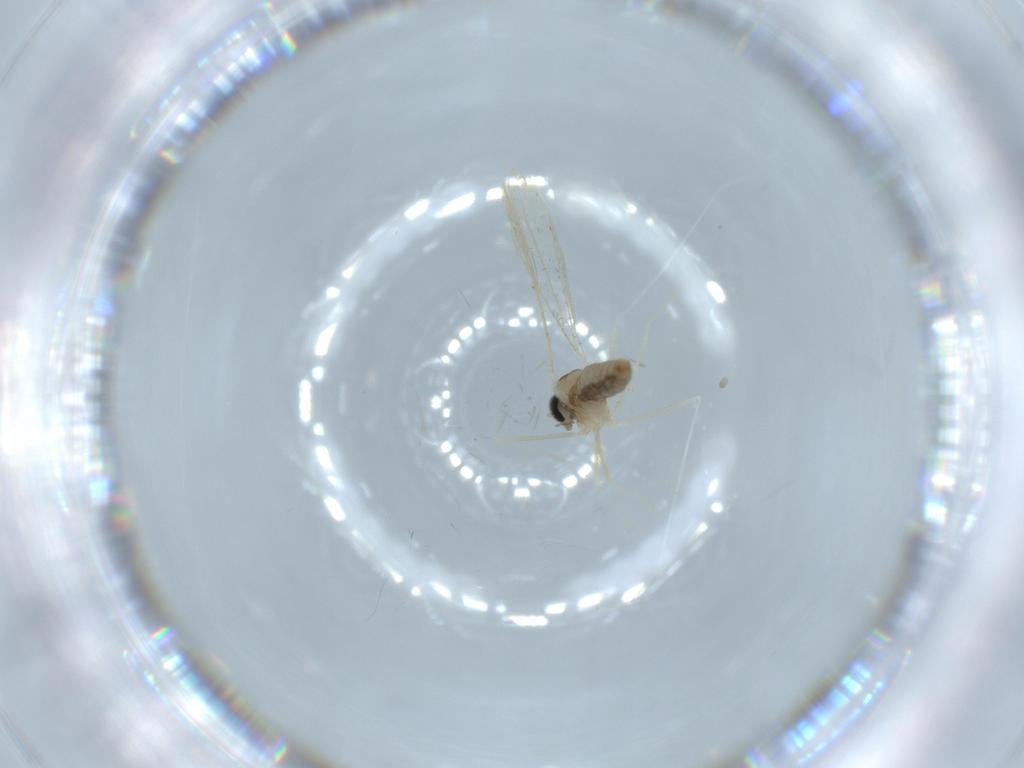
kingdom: Animalia
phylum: Arthropoda
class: Insecta
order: Diptera
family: Cecidomyiidae
